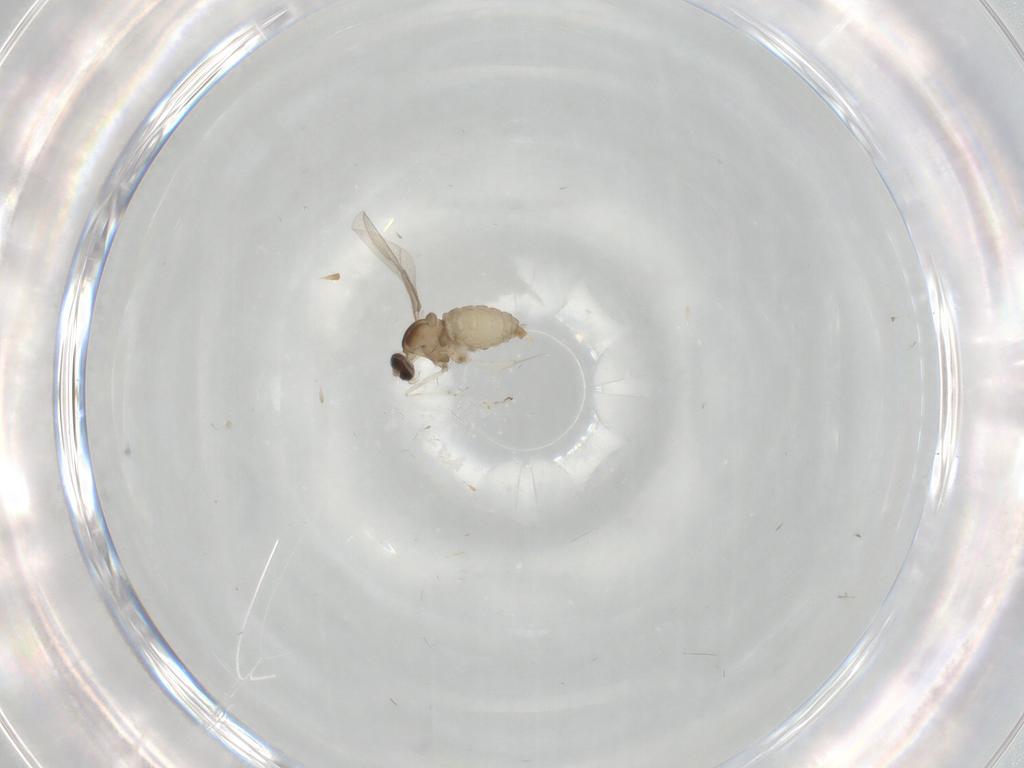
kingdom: Animalia
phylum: Arthropoda
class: Insecta
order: Diptera
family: Cecidomyiidae
